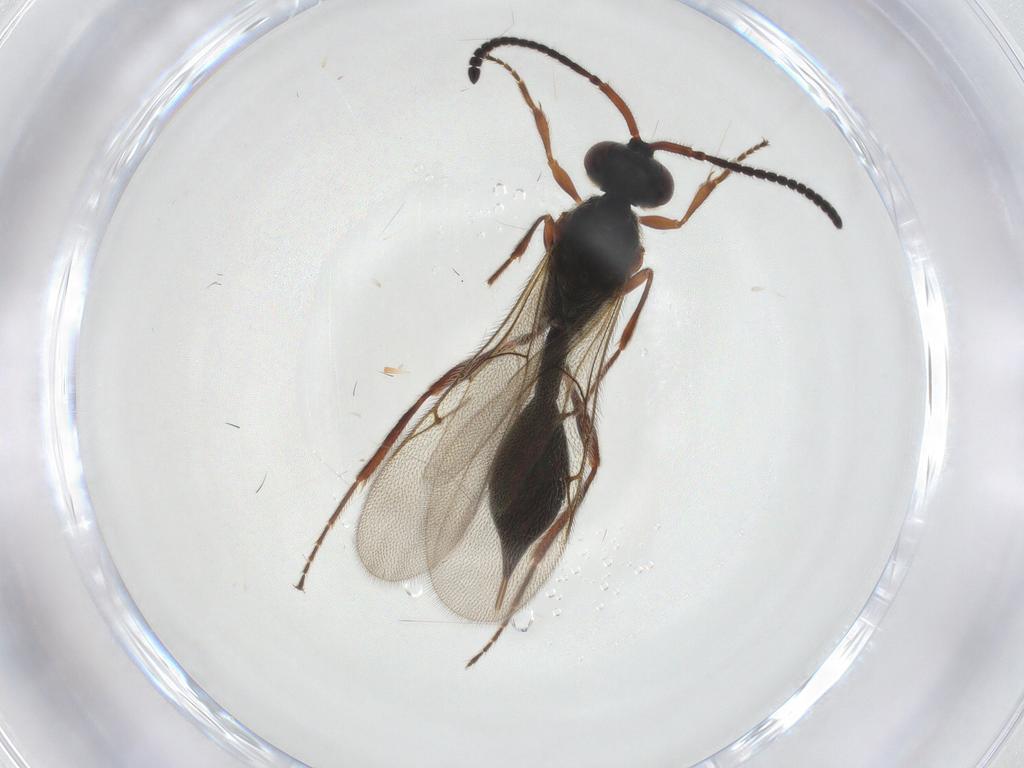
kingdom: Animalia
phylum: Arthropoda
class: Insecta
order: Hymenoptera
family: Diapriidae
